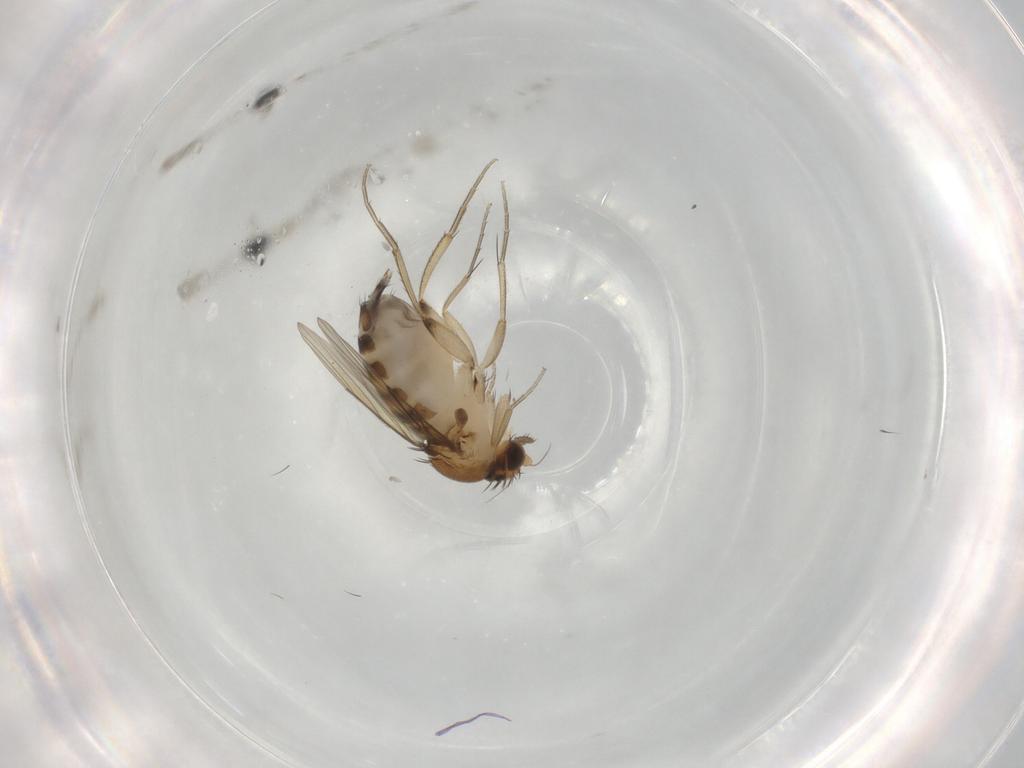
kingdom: Animalia
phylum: Arthropoda
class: Insecta
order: Diptera
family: Phoridae
